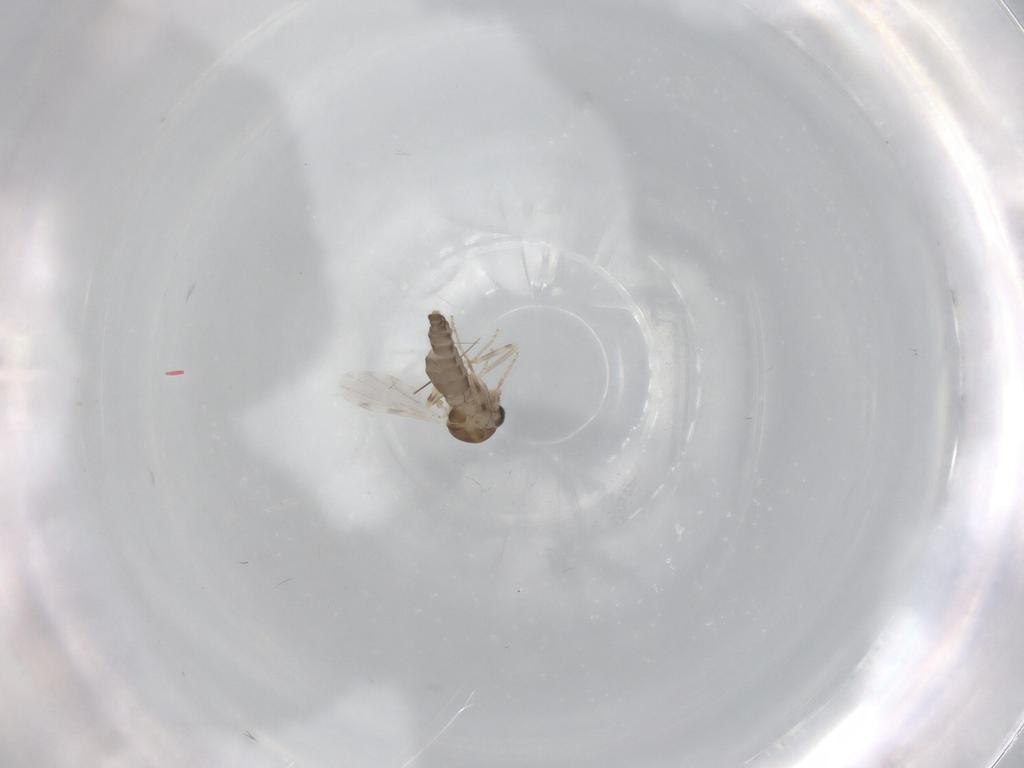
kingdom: Animalia
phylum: Arthropoda
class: Insecta
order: Diptera
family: Ceratopogonidae
